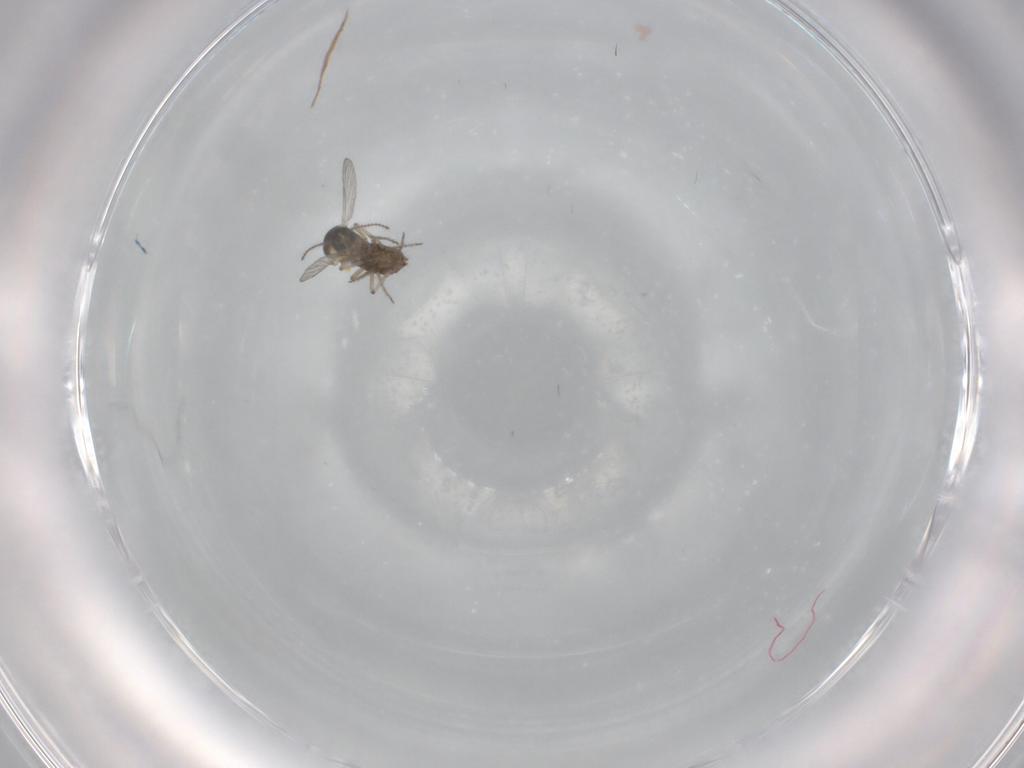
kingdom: Animalia
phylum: Arthropoda
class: Insecta
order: Diptera
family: Ceratopogonidae
